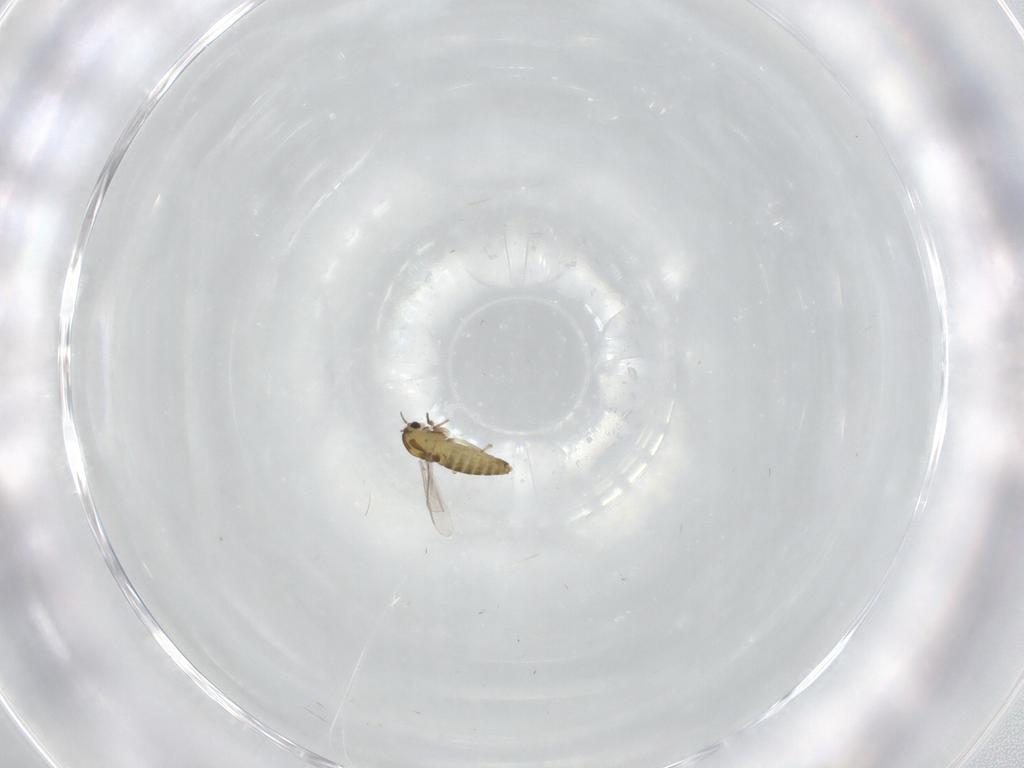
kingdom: Animalia
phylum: Arthropoda
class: Insecta
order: Diptera
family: Chironomidae
